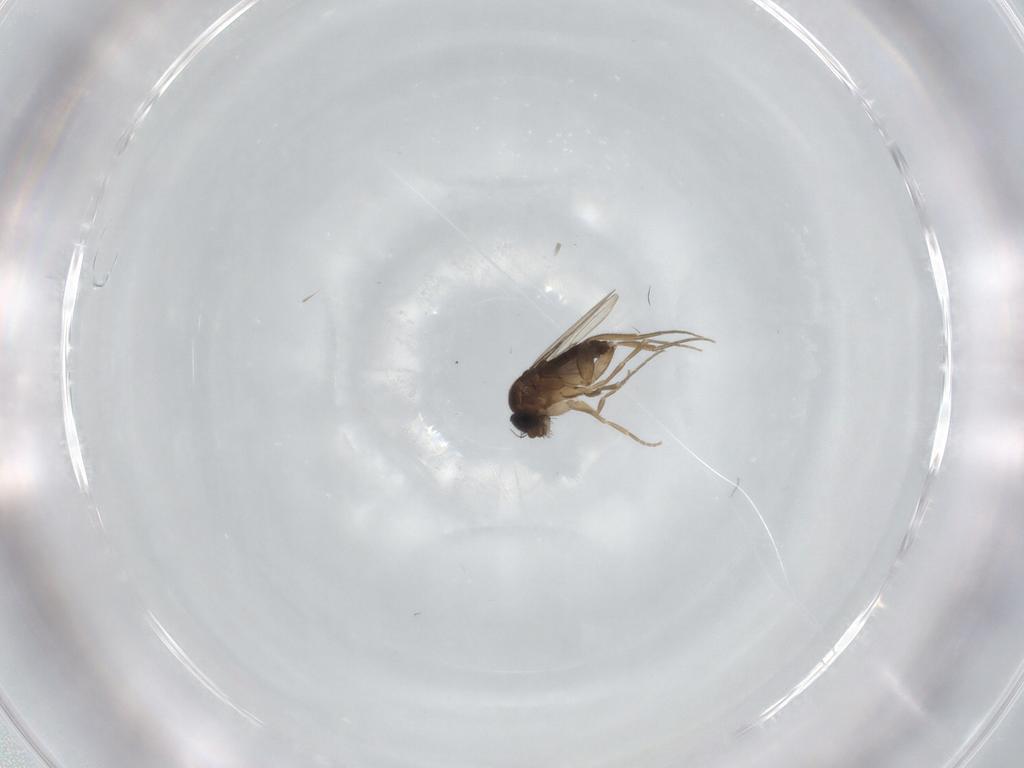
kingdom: Animalia
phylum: Arthropoda
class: Insecta
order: Diptera
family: Phoridae
